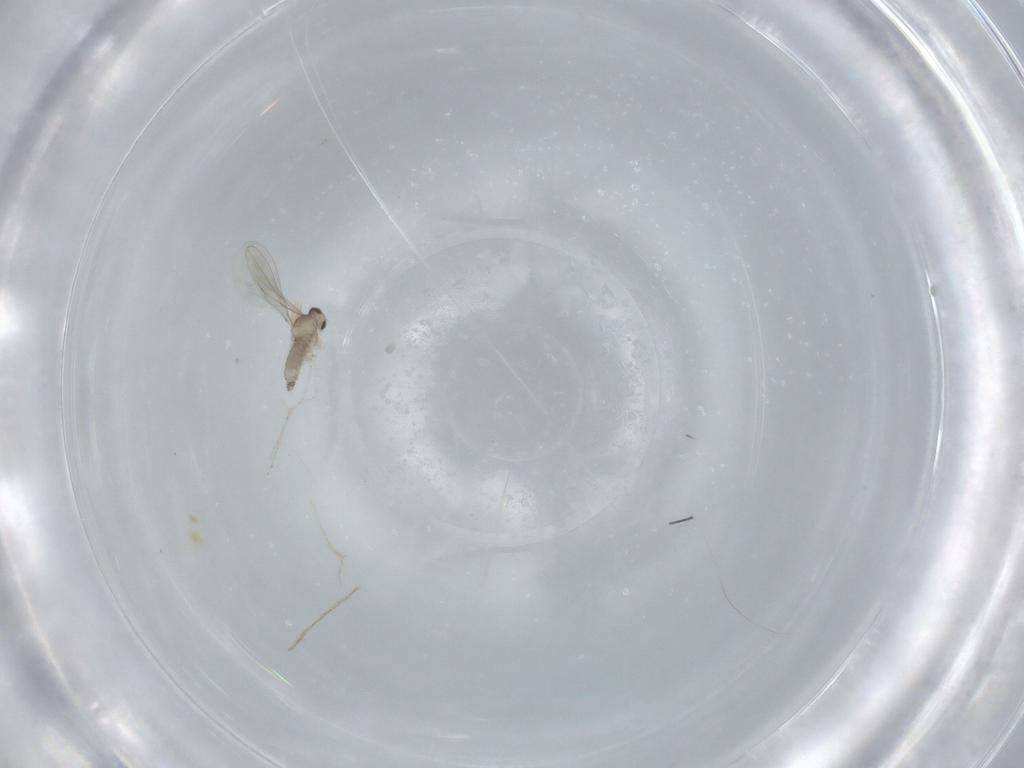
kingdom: Animalia
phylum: Arthropoda
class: Insecta
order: Diptera
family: Cecidomyiidae
